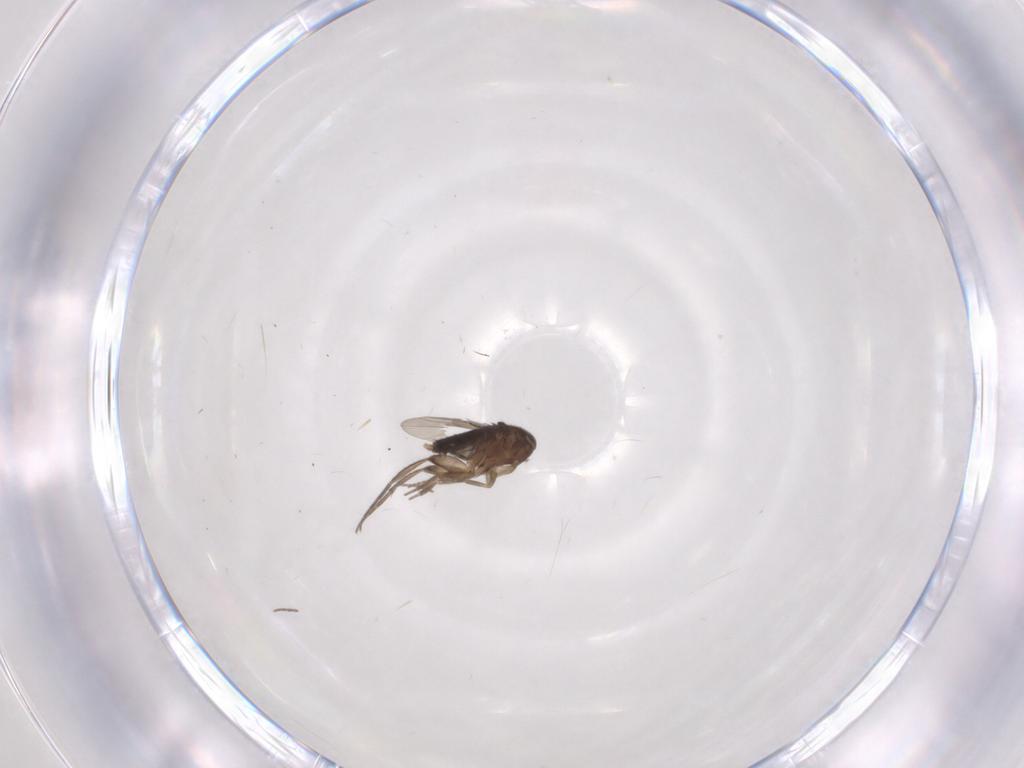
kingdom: Animalia
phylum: Arthropoda
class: Insecta
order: Diptera
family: Phoridae
